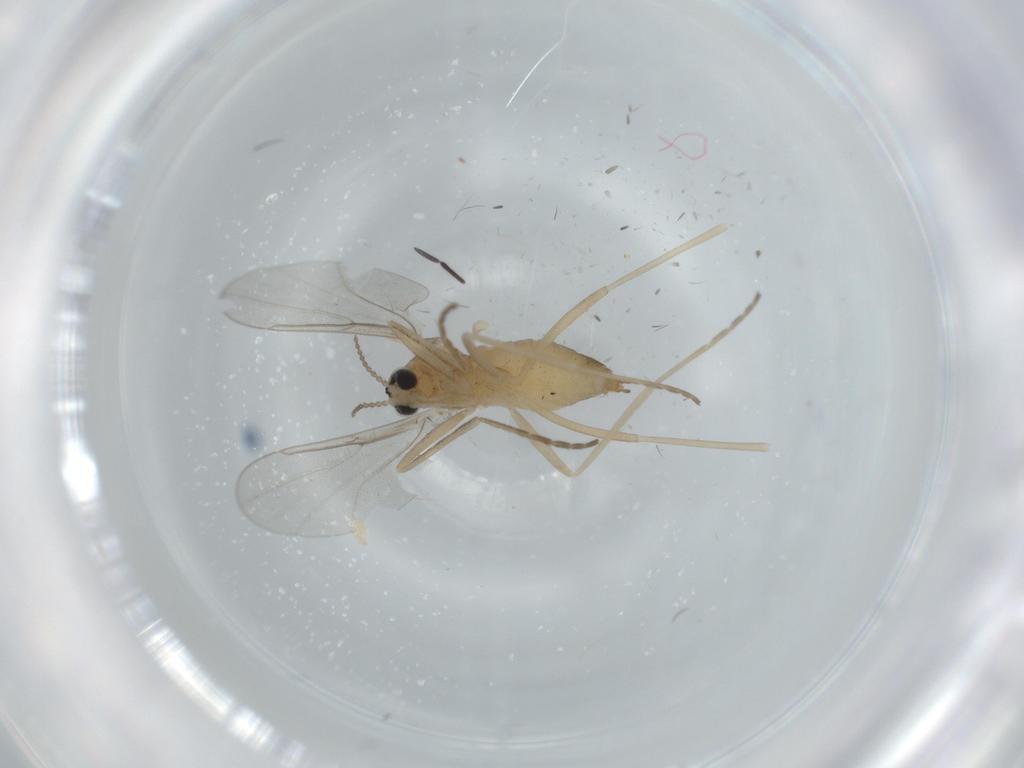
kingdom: Animalia
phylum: Arthropoda
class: Insecta
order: Diptera
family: Cecidomyiidae
